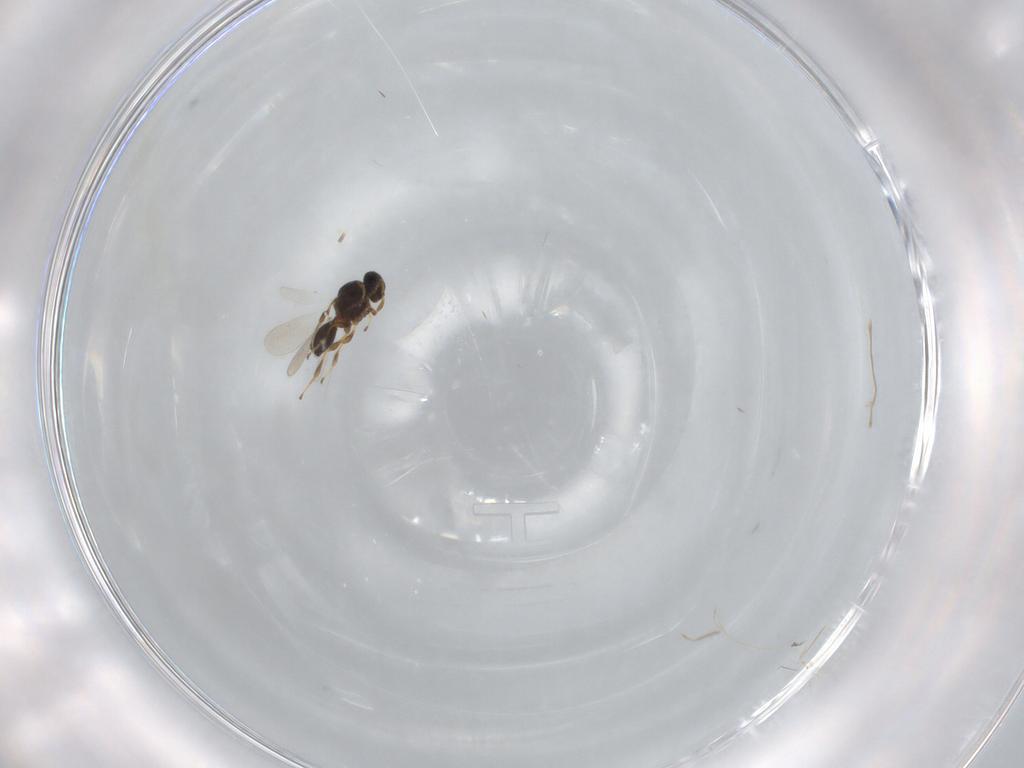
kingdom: Animalia
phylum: Arthropoda
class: Insecta
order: Hymenoptera
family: Platygastridae
